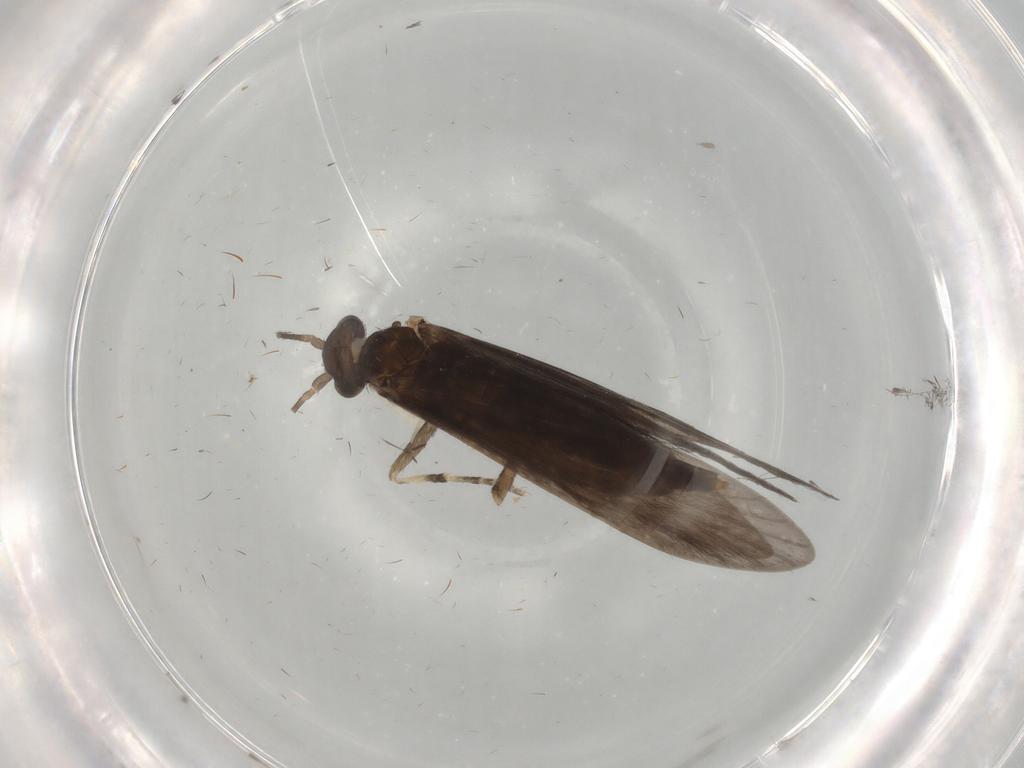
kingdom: Animalia
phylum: Arthropoda
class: Insecta
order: Trichoptera
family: Xiphocentronidae
